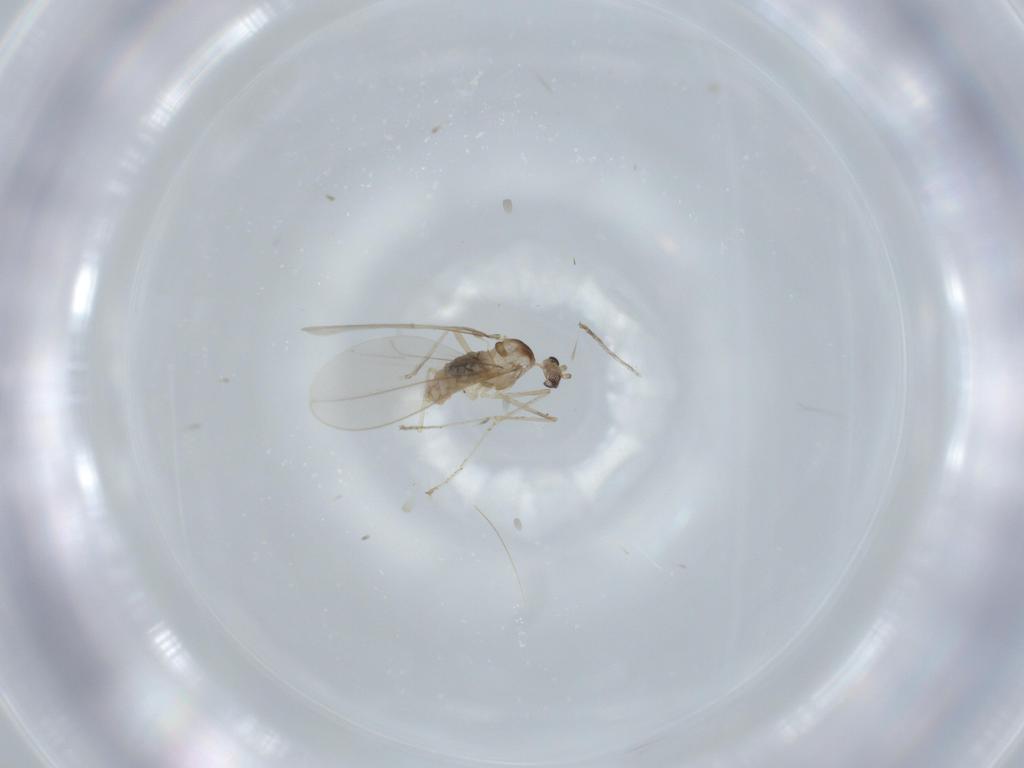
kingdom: Animalia
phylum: Arthropoda
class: Insecta
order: Diptera
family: Cecidomyiidae
